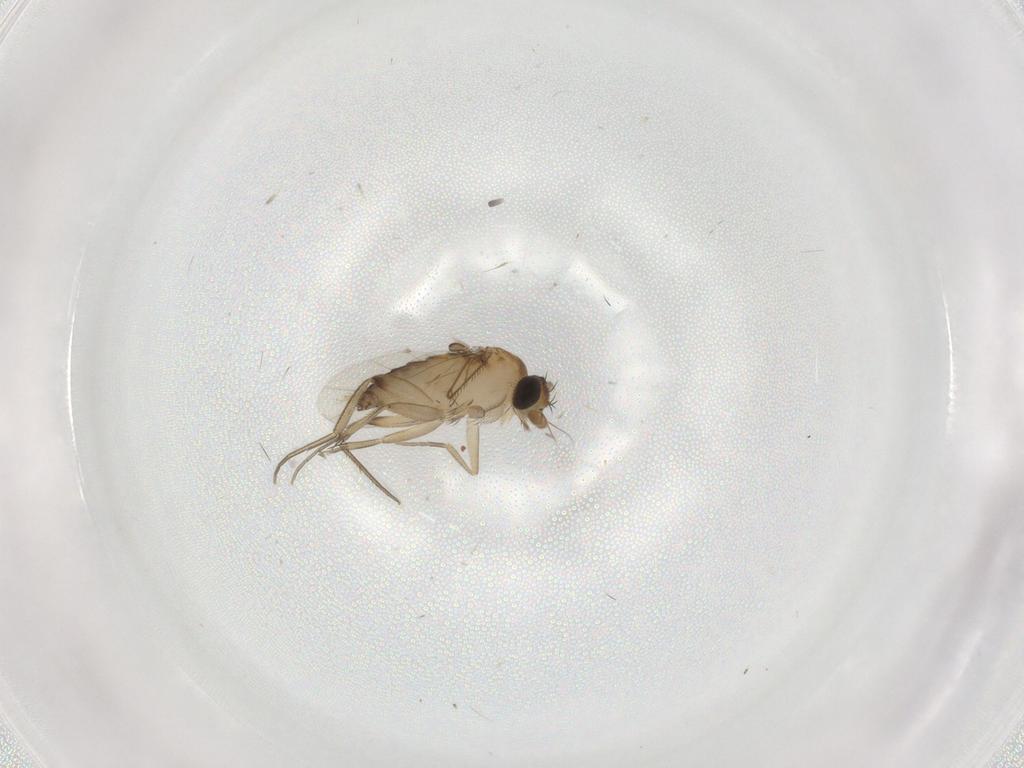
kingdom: Animalia
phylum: Arthropoda
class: Insecta
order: Diptera
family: Phoridae
